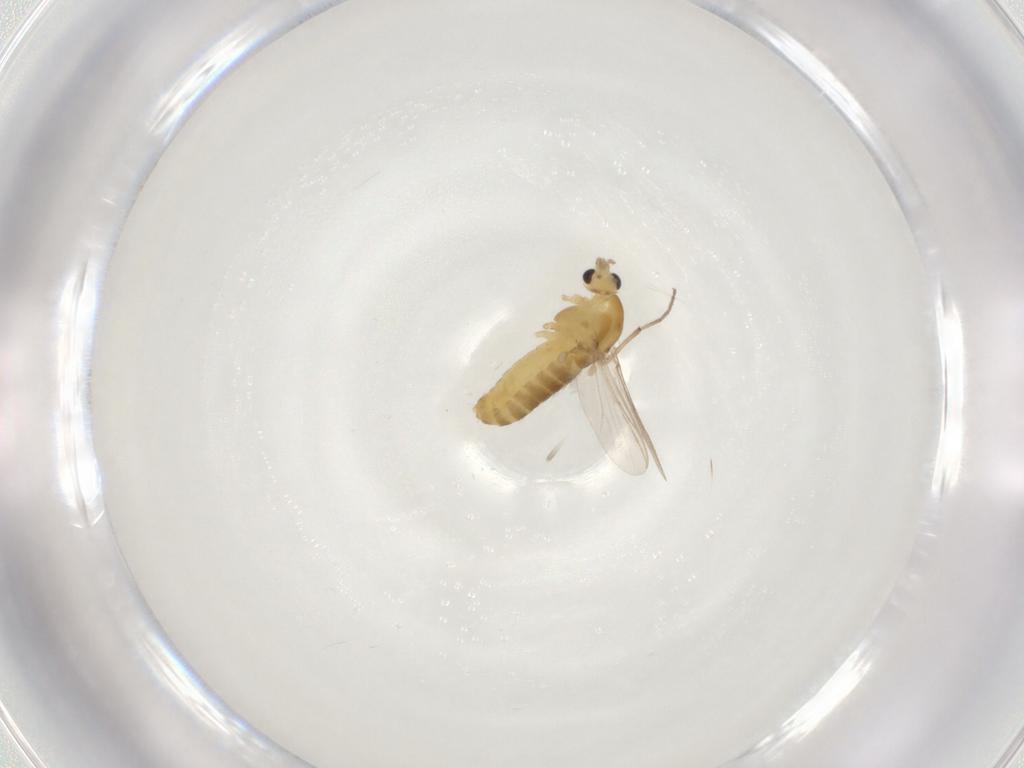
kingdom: Animalia
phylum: Arthropoda
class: Insecta
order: Diptera
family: Chironomidae
